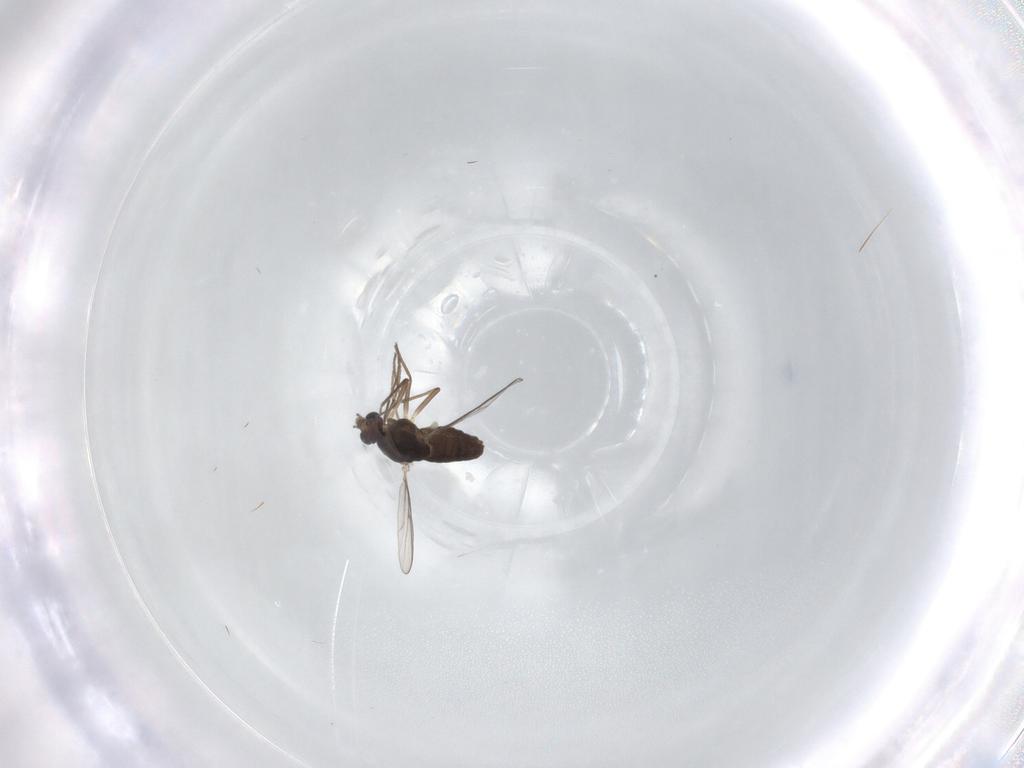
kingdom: Animalia
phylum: Arthropoda
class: Insecta
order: Diptera
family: Chironomidae
